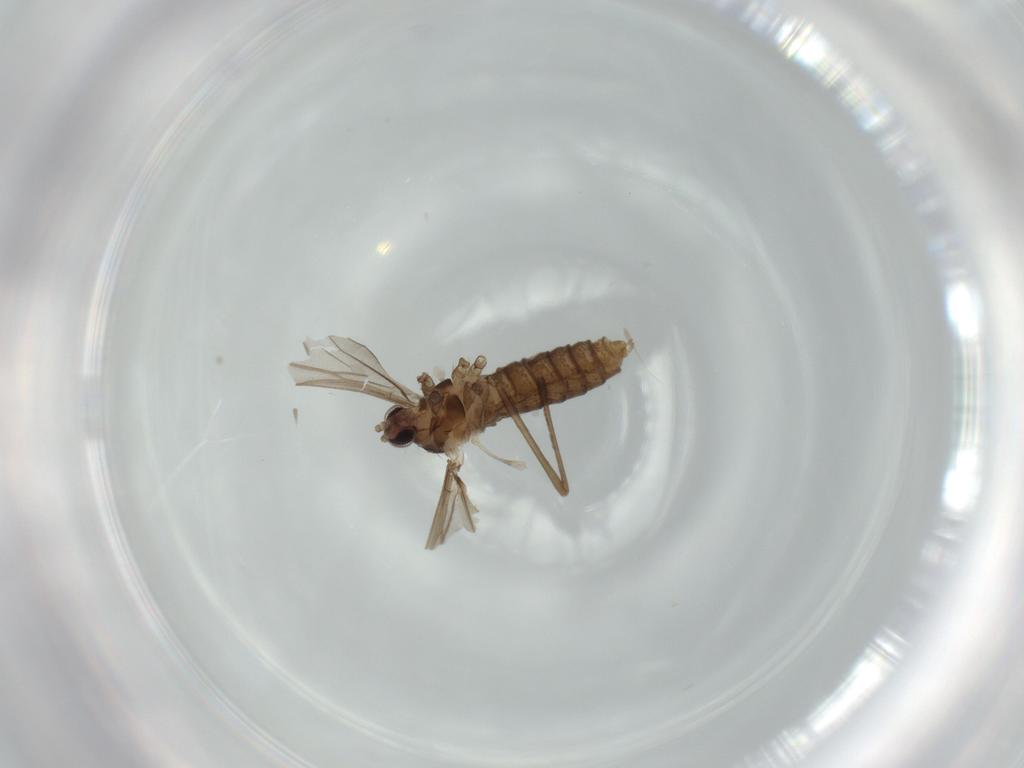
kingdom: Animalia
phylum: Arthropoda
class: Insecta
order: Diptera
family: Ceratopogonidae
